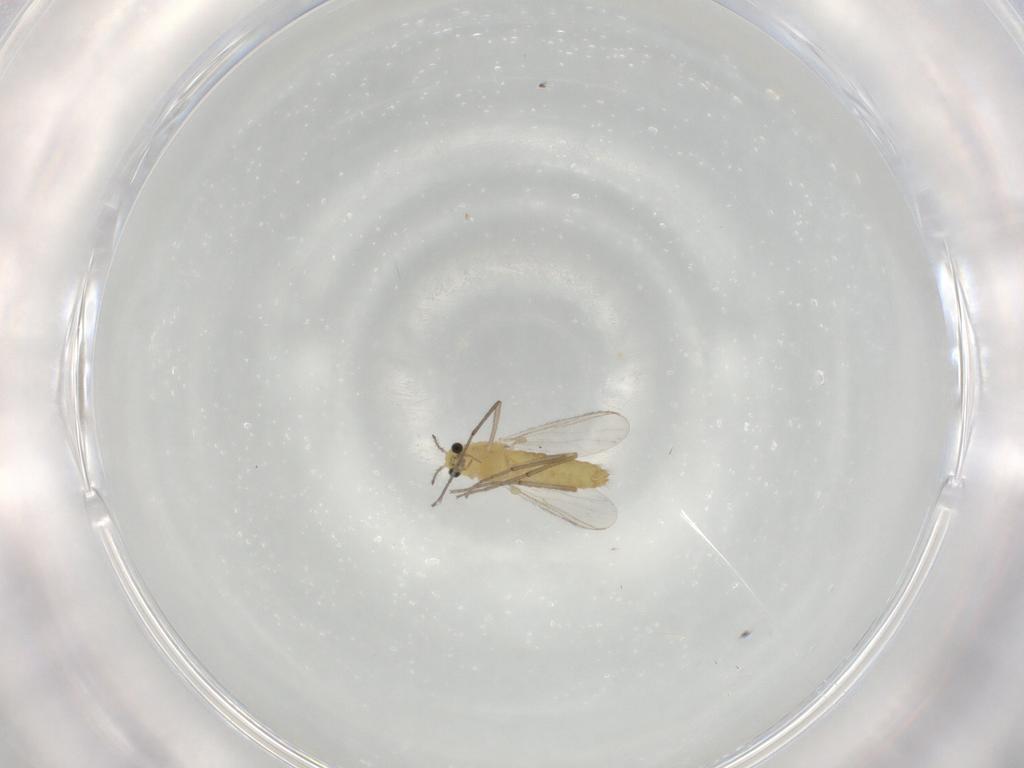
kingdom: Animalia
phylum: Arthropoda
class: Insecta
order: Diptera
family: Chironomidae
